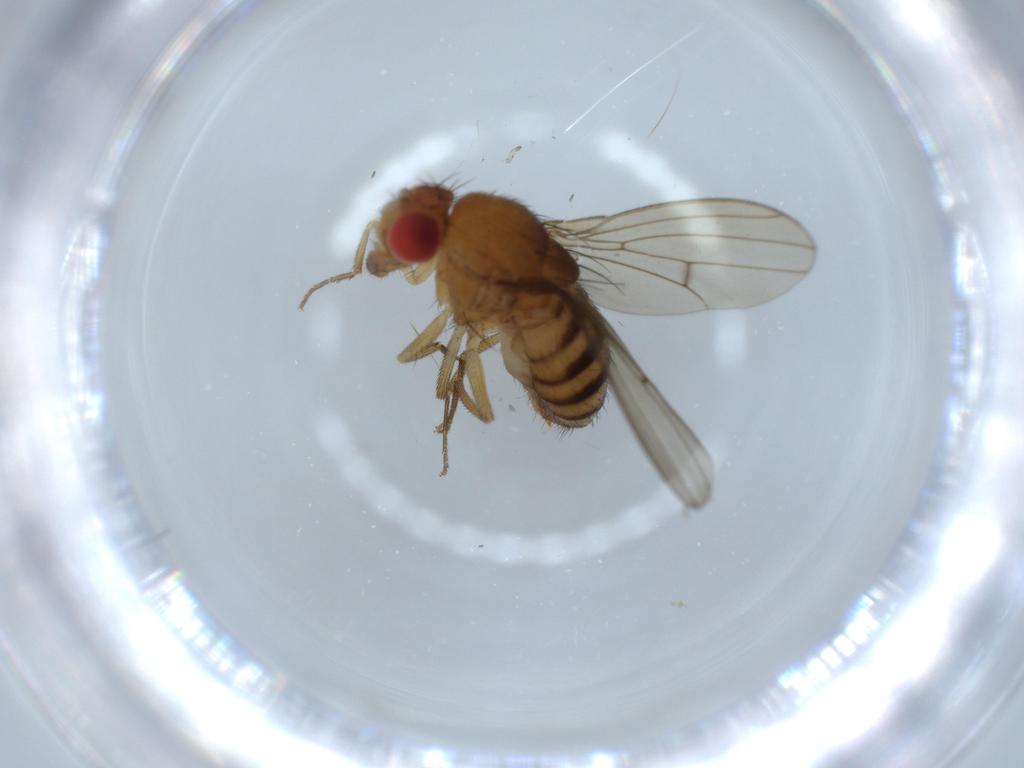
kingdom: Animalia
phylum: Arthropoda
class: Insecta
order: Diptera
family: Drosophilidae
